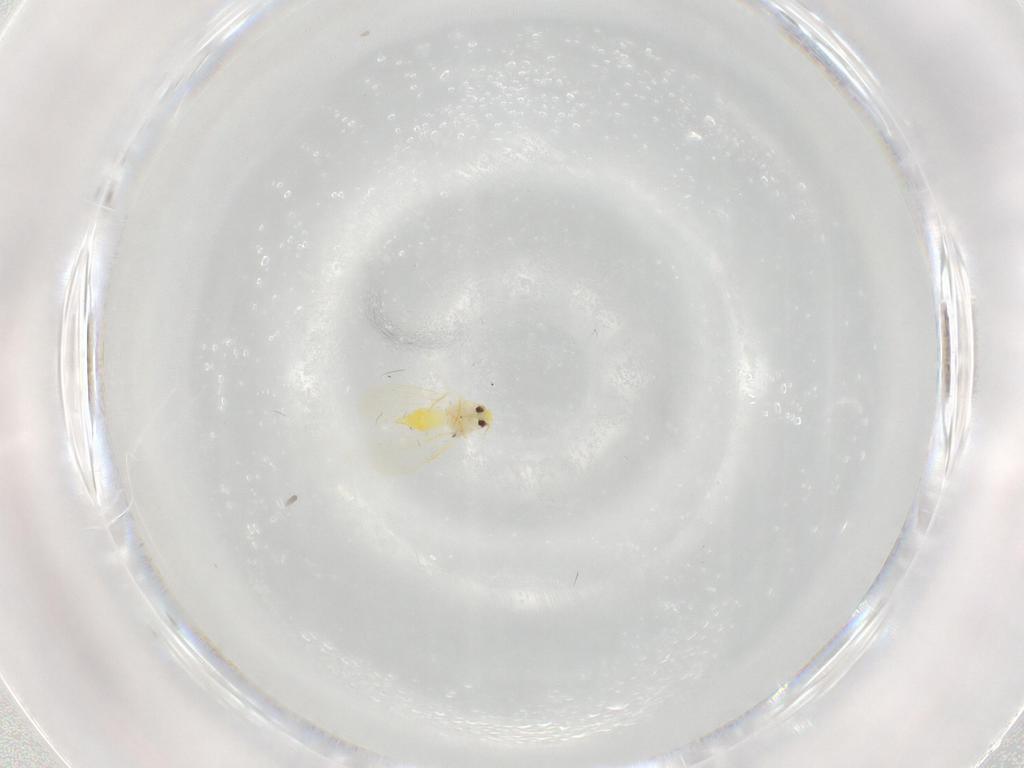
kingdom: Animalia
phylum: Arthropoda
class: Insecta
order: Hemiptera
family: Aleyrodidae
